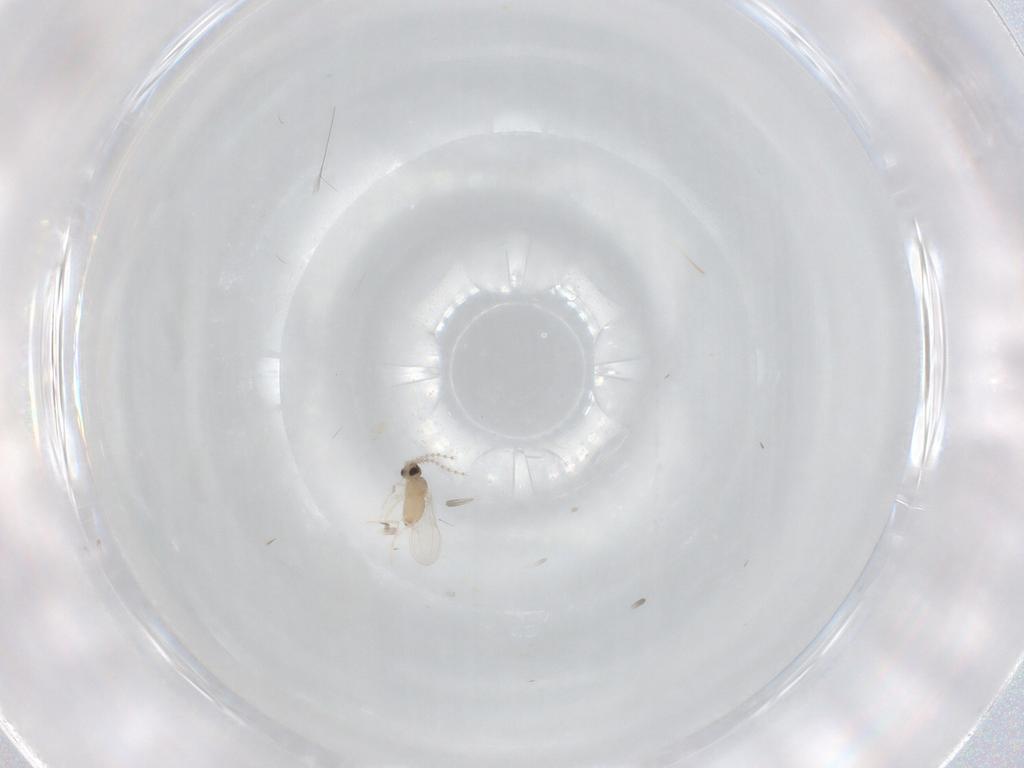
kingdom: Animalia
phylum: Arthropoda
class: Insecta
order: Diptera
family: Cecidomyiidae
